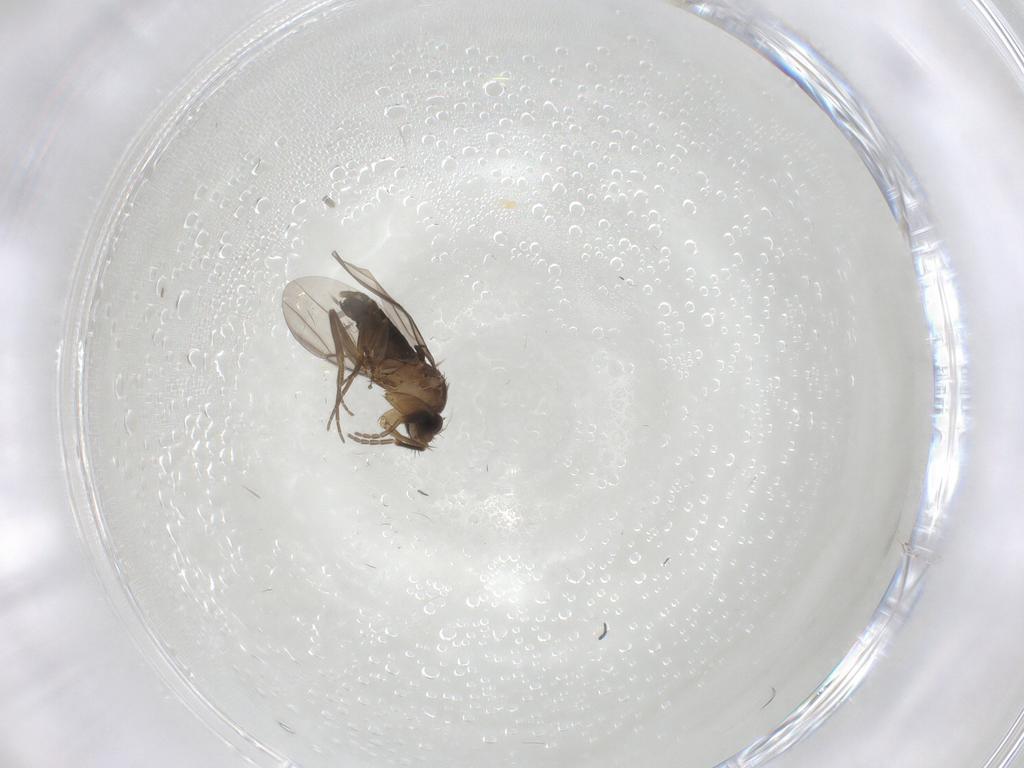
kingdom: Animalia
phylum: Arthropoda
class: Insecta
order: Diptera
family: Phoridae
